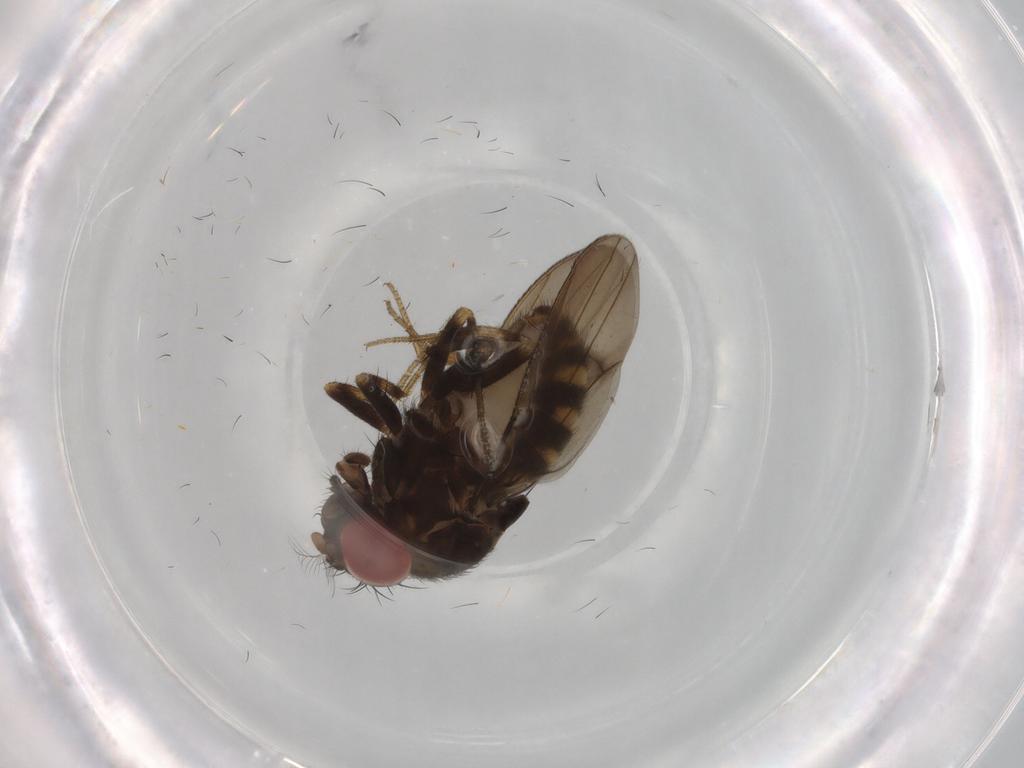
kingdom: Animalia
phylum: Arthropoda
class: Insecta
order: Diptera
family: Drosophilidae
